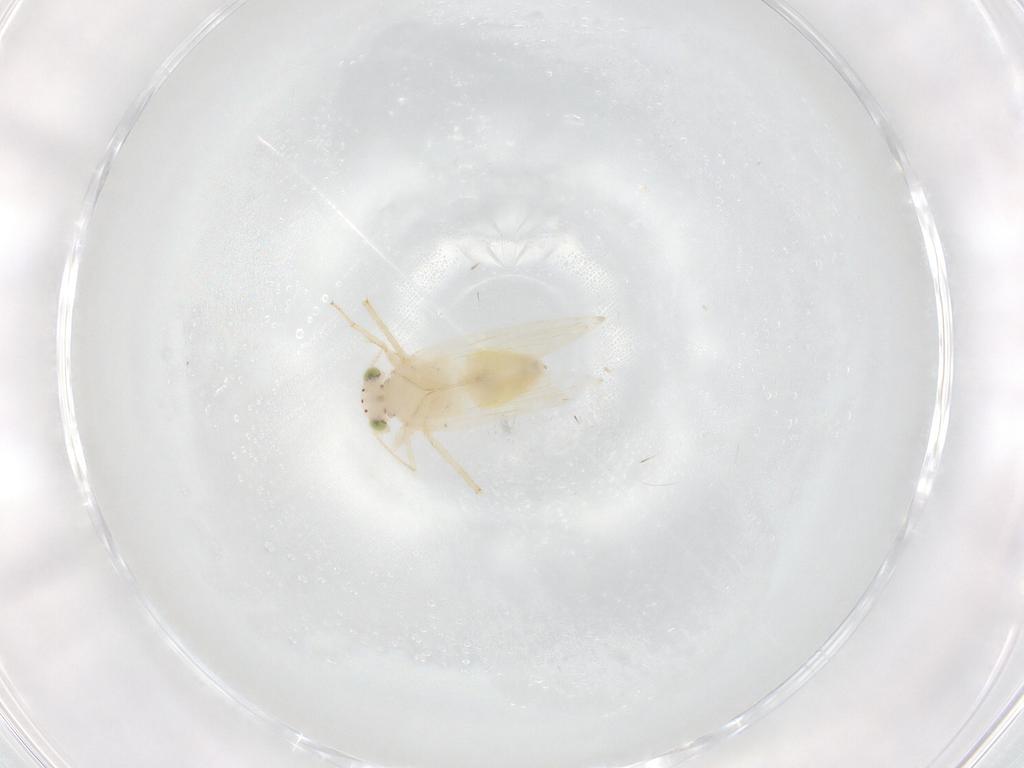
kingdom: Animalia
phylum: Arthropoda
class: Insecta
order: Psocodea
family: Lepidopsocidae
